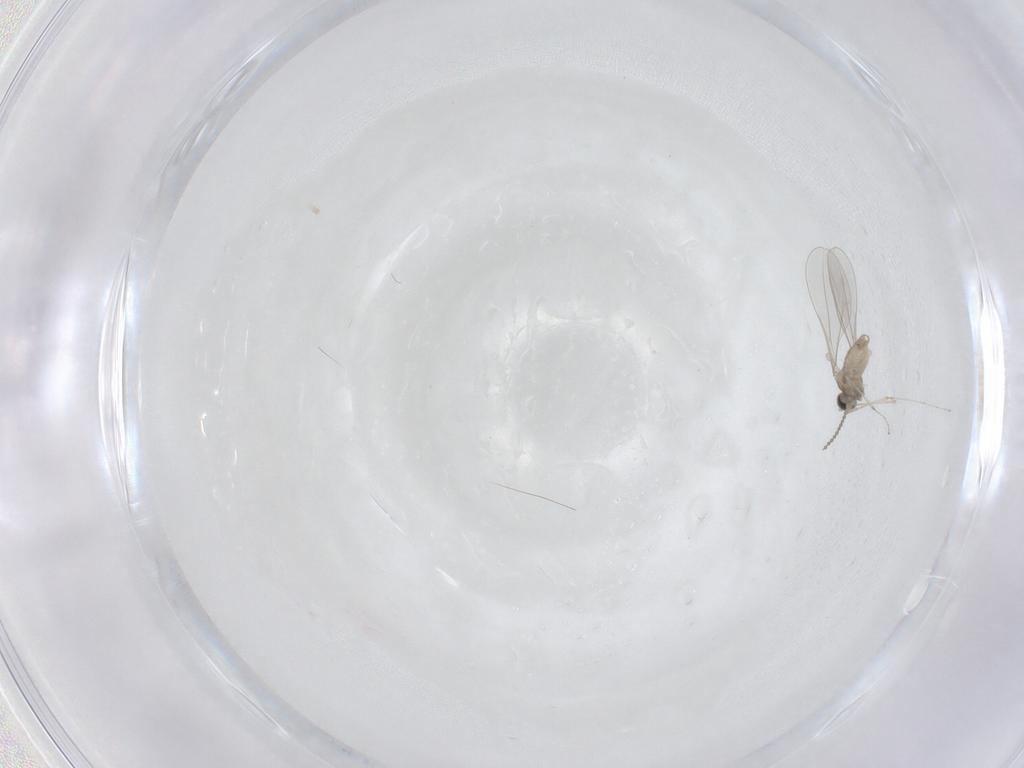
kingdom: Animalia
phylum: Arthropoda
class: Insecta
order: Diptera
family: Cecidomyiidae
